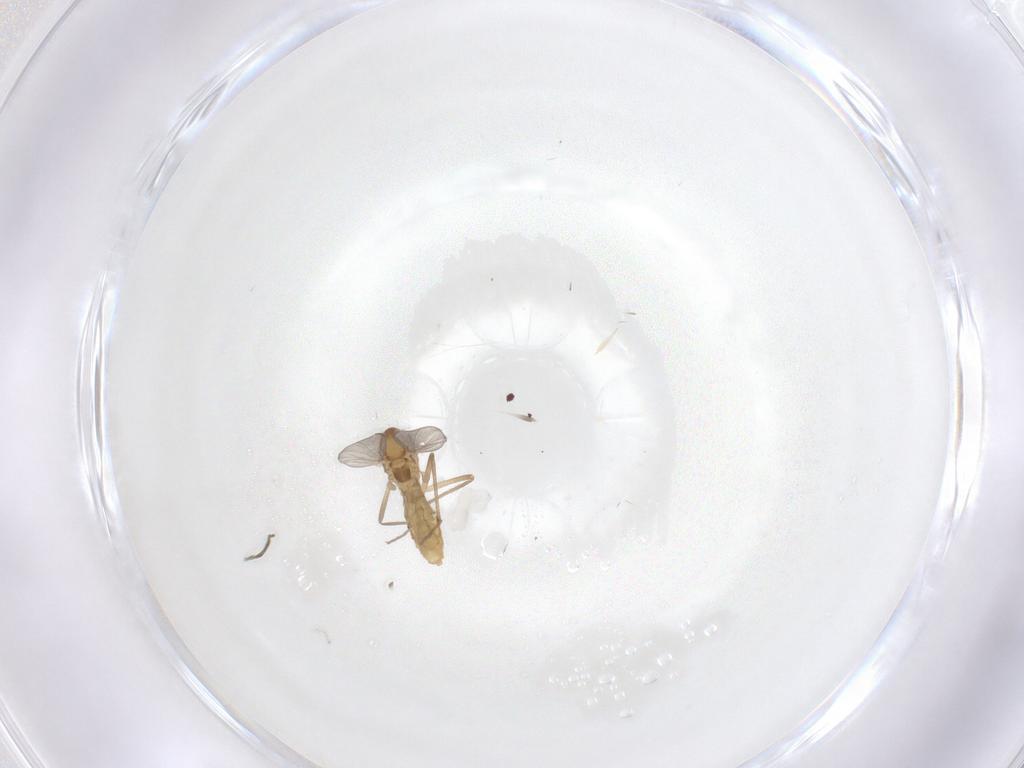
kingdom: Animalia
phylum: Arthropoda
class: Insecta
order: Diptera
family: Chironomidae
